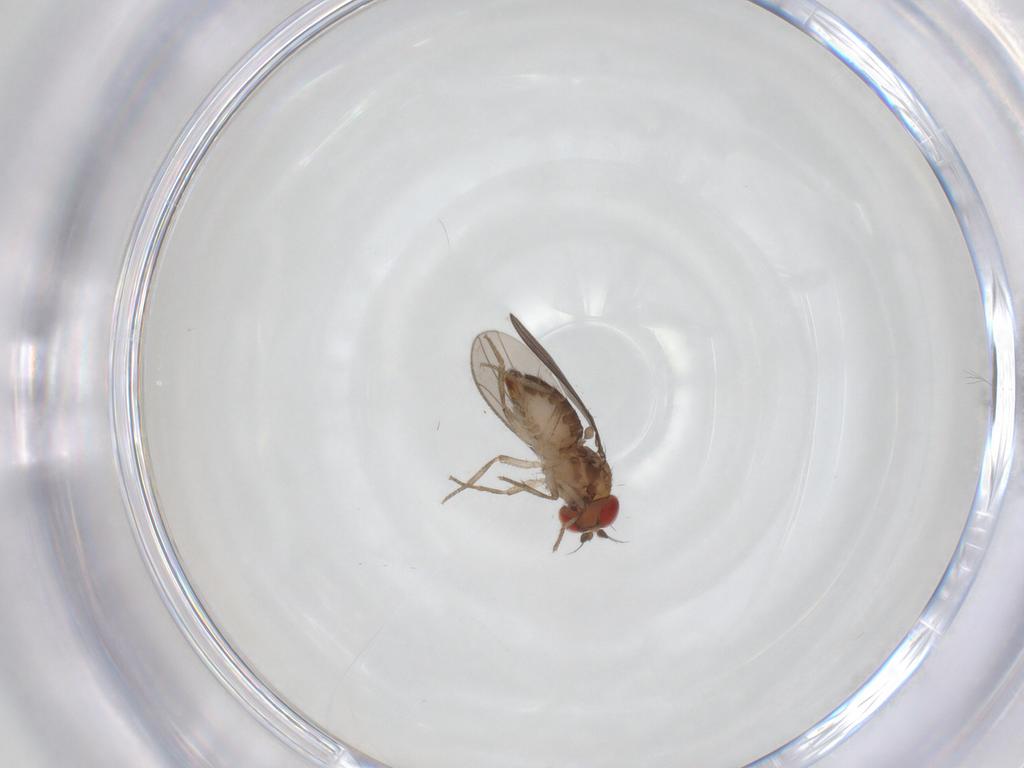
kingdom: Animalia
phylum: Arthropoda
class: Insecta
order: Diptera
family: Drosophilidae
